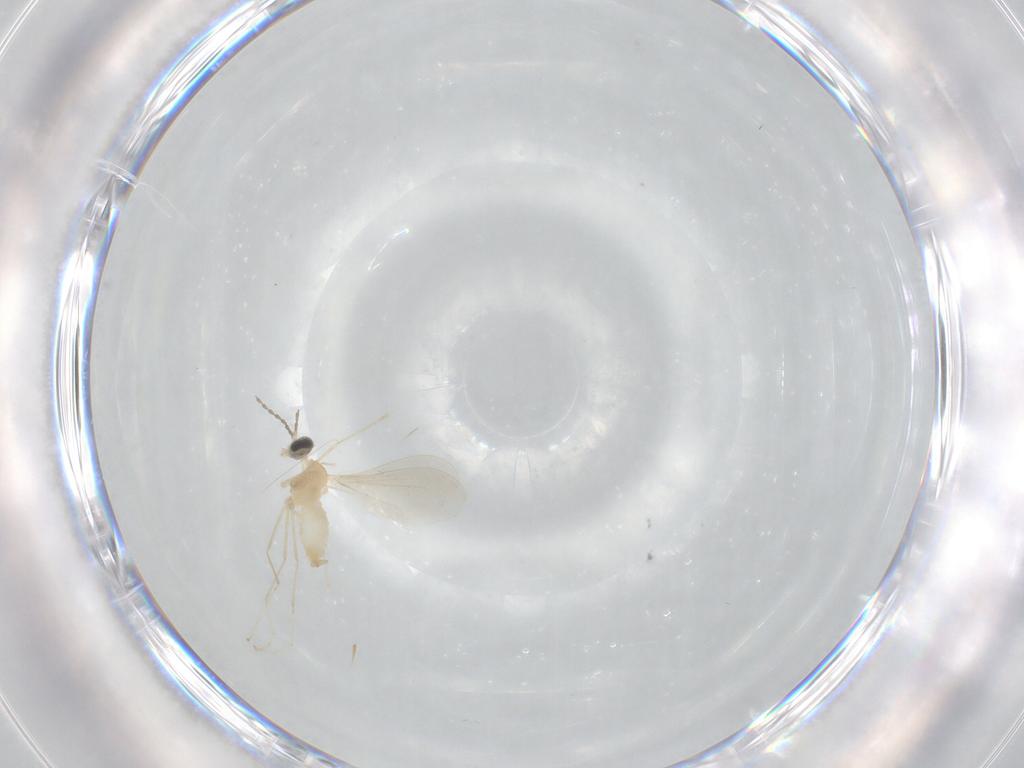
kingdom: Animalia
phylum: Arthropoda
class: Insecta
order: Diptera
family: Cecidomyiidae
